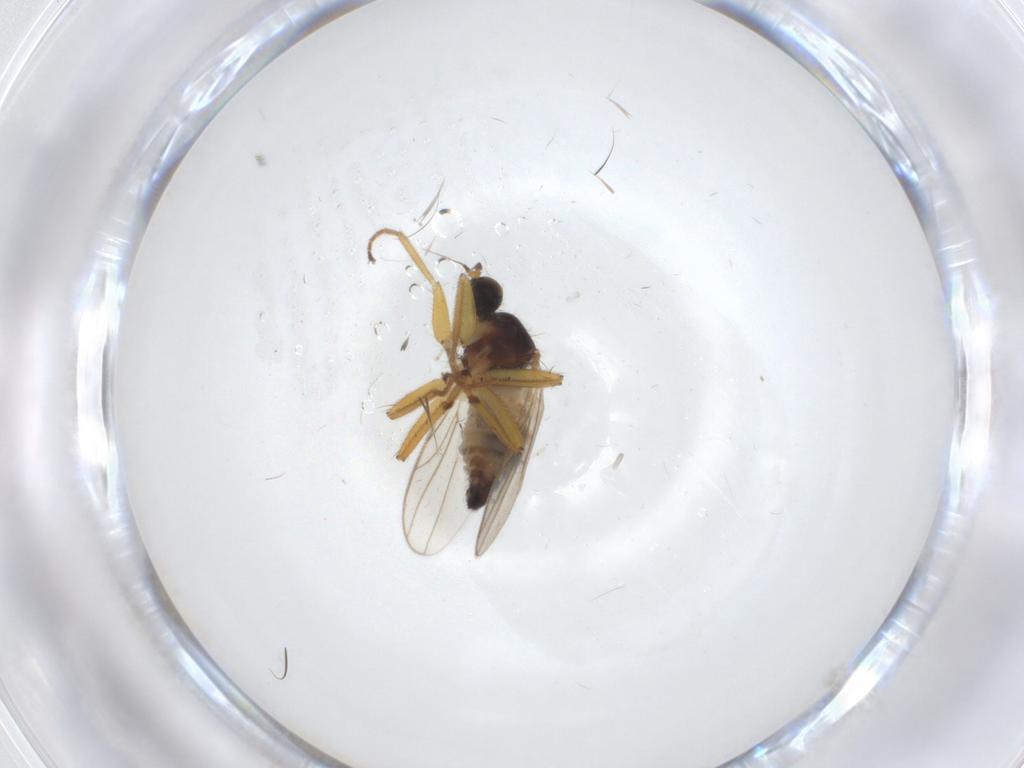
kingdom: Animalia
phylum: Arthropoda
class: Insecta
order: Diptera
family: Hybotidae
